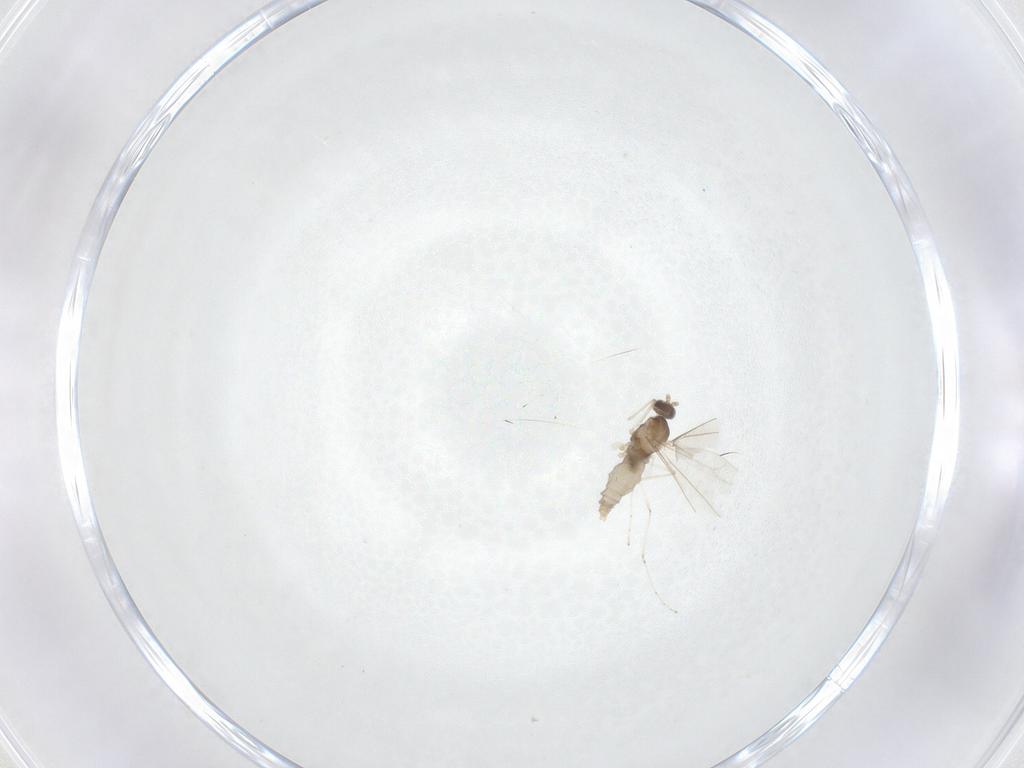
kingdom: Animalia
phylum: Arthropoda
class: Insecta
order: Diptera
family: Cecidomyiidae
